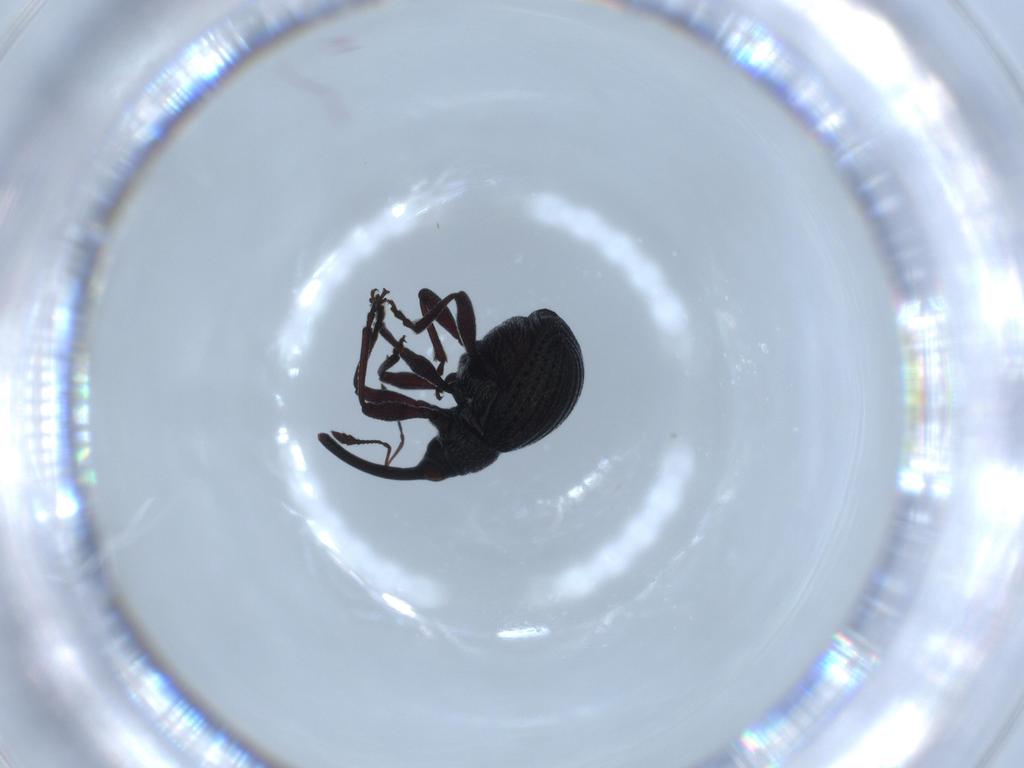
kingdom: Animalia
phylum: Arthropoda
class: Insecta
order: Coleoptera
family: Brentidae
